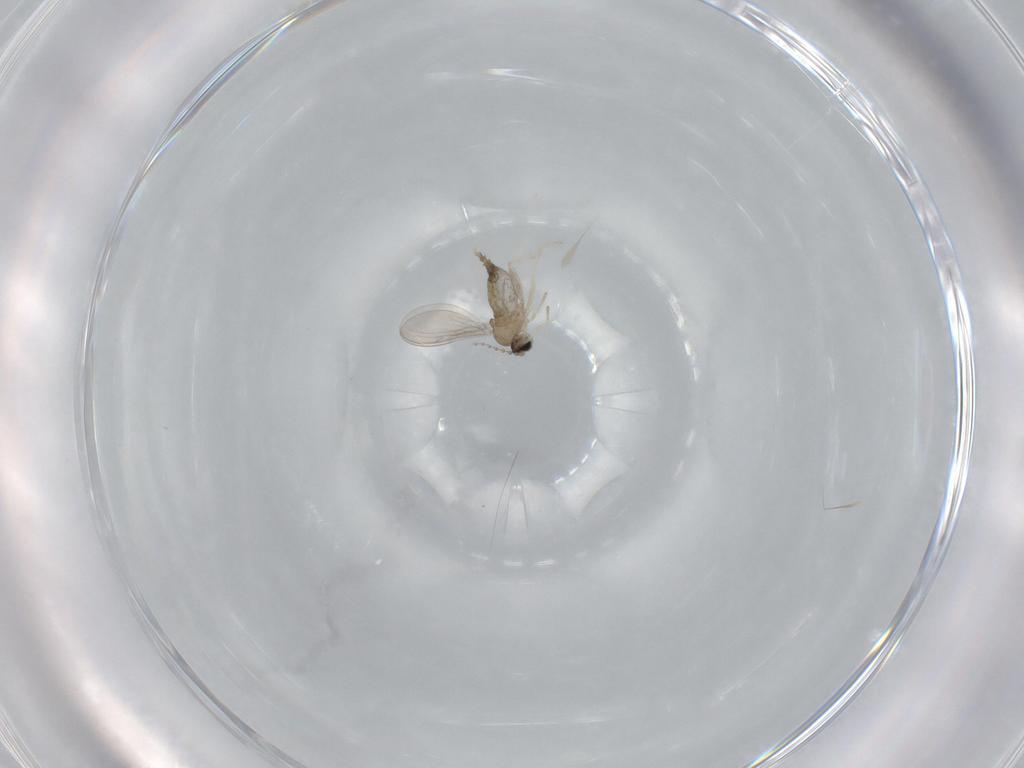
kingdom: Animalia
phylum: Arthropoda
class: Insecta
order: Diptera
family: Cecidomyiidae
